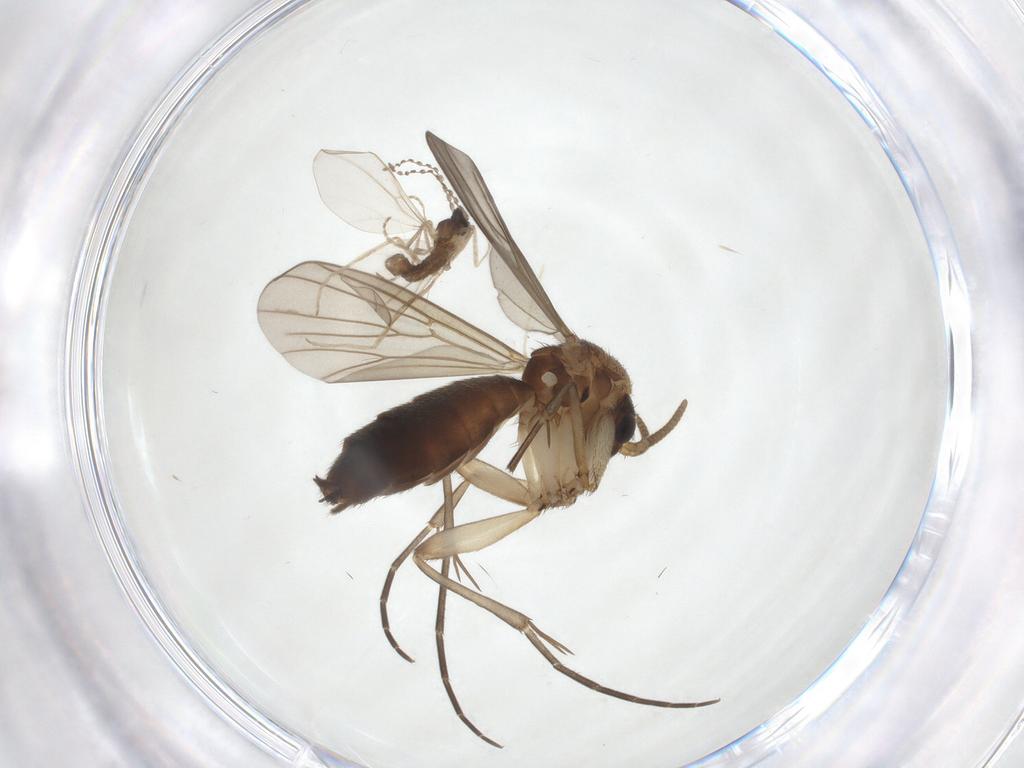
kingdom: Animalia
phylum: Arthropoda
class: Insecta
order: Diptera
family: Mycetophilidae
